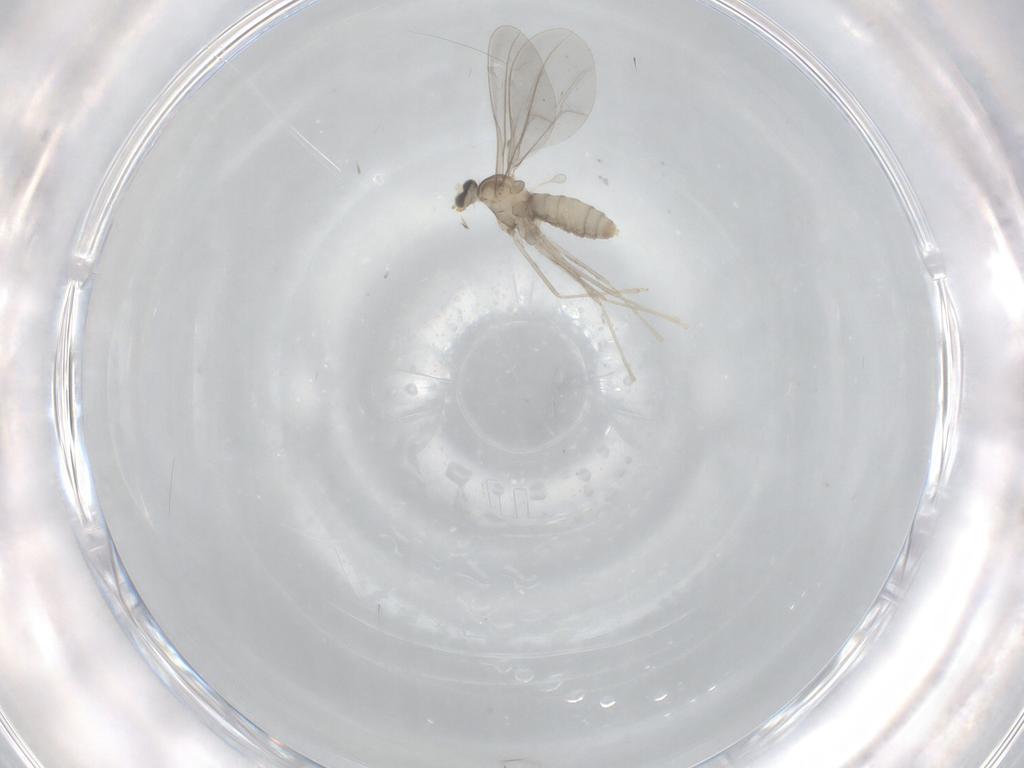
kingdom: Animalia
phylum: Arthropoda
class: Insecta
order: Diptera
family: Cecidomyiidae
